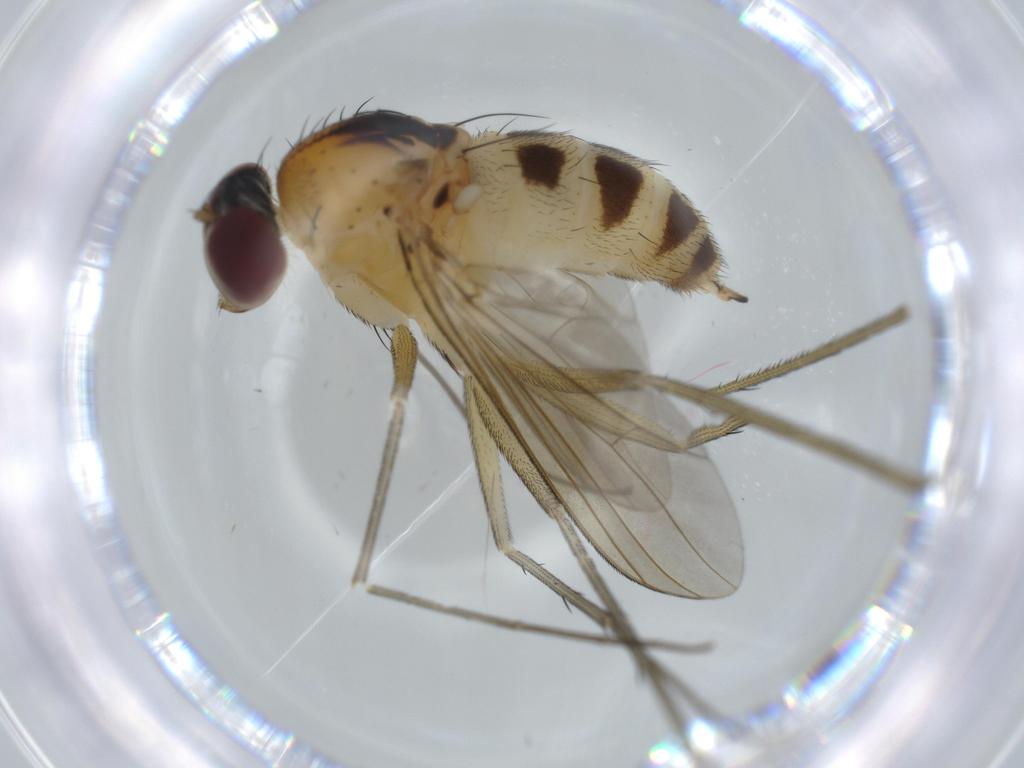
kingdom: Animalia
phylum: Arthropoda
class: Insecta
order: Diptera
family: Dolichopodidae
